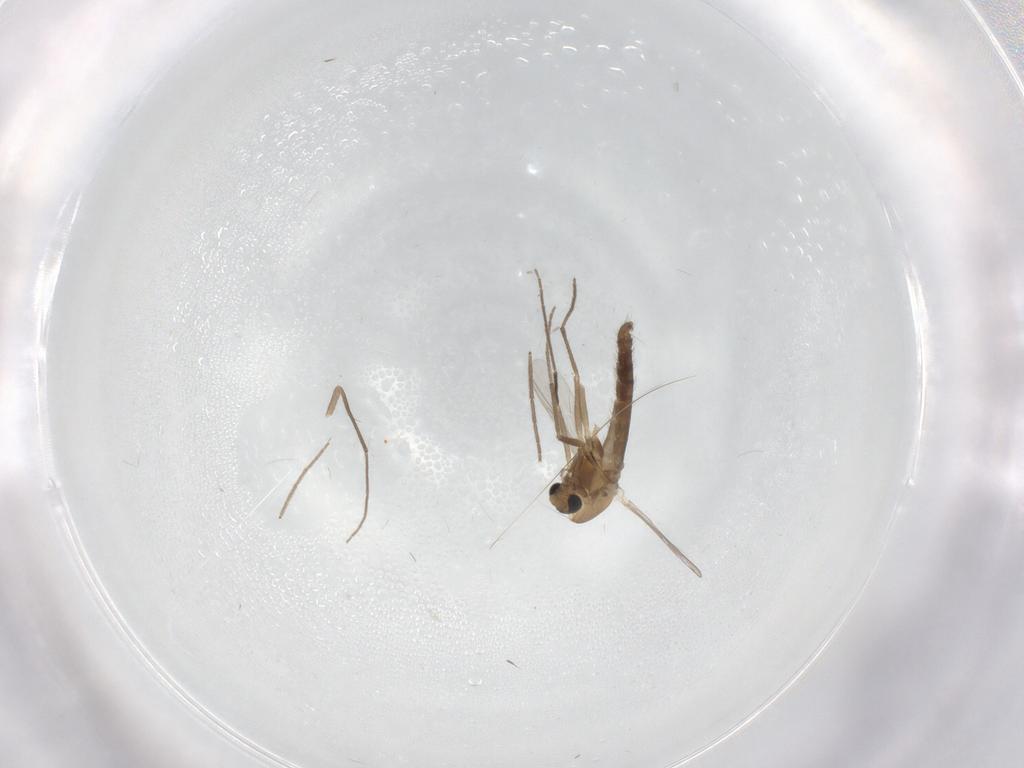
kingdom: Animalia
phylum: Arthropoda
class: Insecta
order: Diptera
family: Chironomidae
